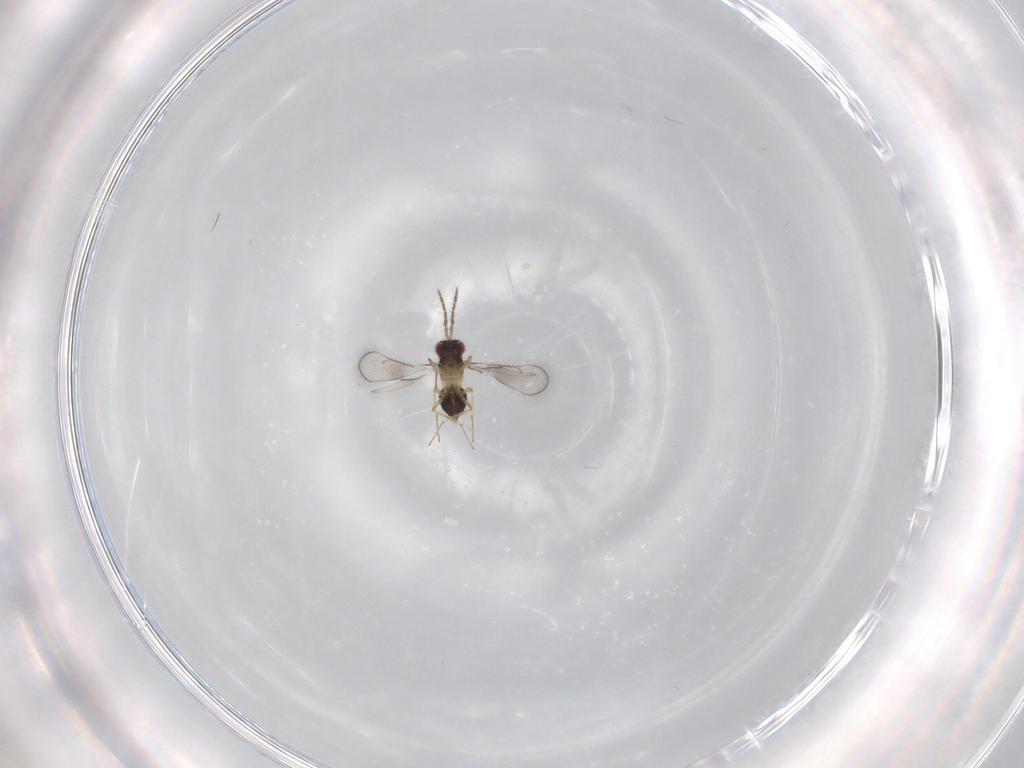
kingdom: Animalia
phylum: Arthropoda
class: Insecta
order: Hymenoptera
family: Eulophidae
